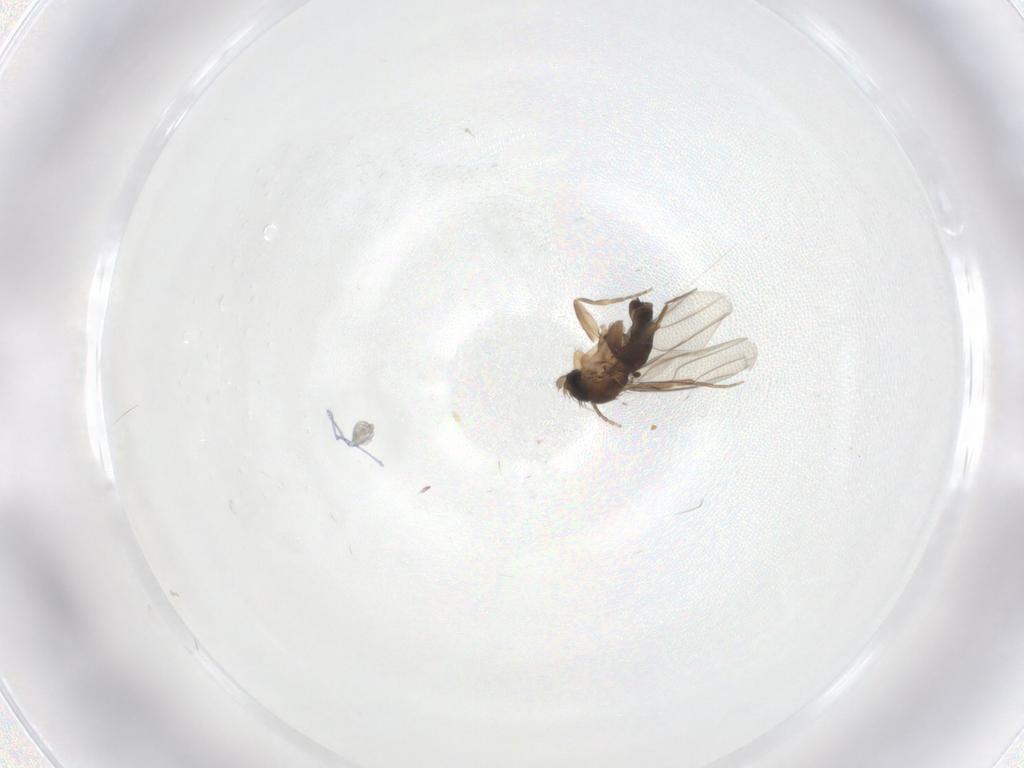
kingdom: Animalia
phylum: Arthropoda
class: Insecta
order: Diptera
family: Phoridae
